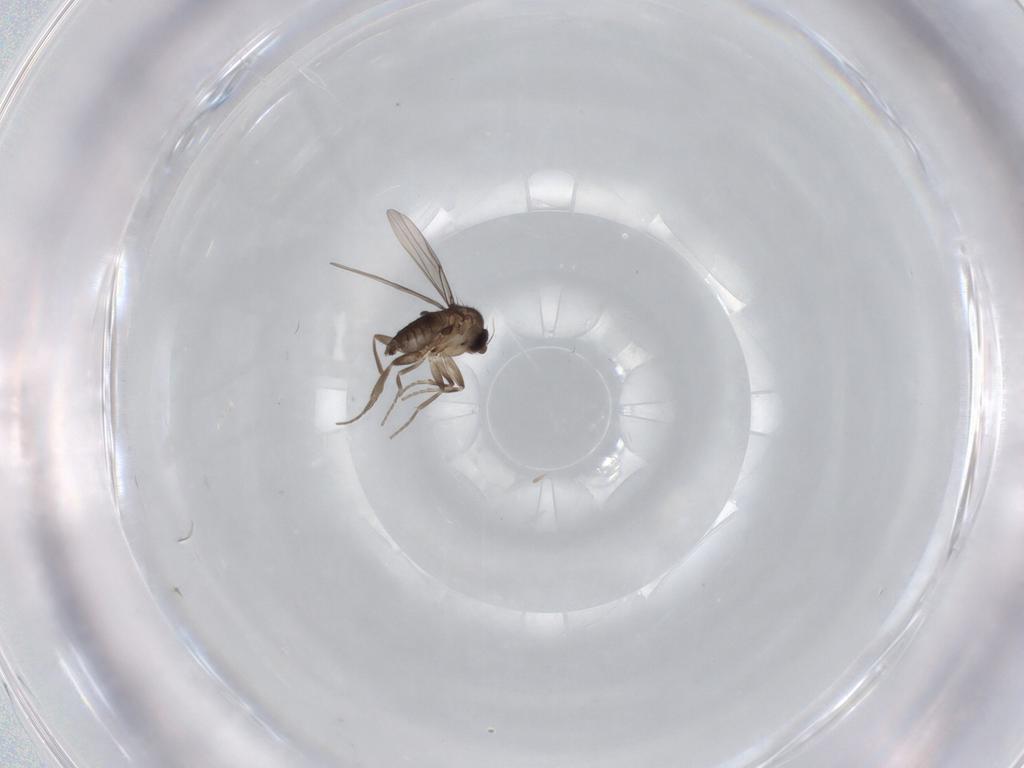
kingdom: Animalia
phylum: Arthropoda
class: Insecta
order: Diptera
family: Phoridae
